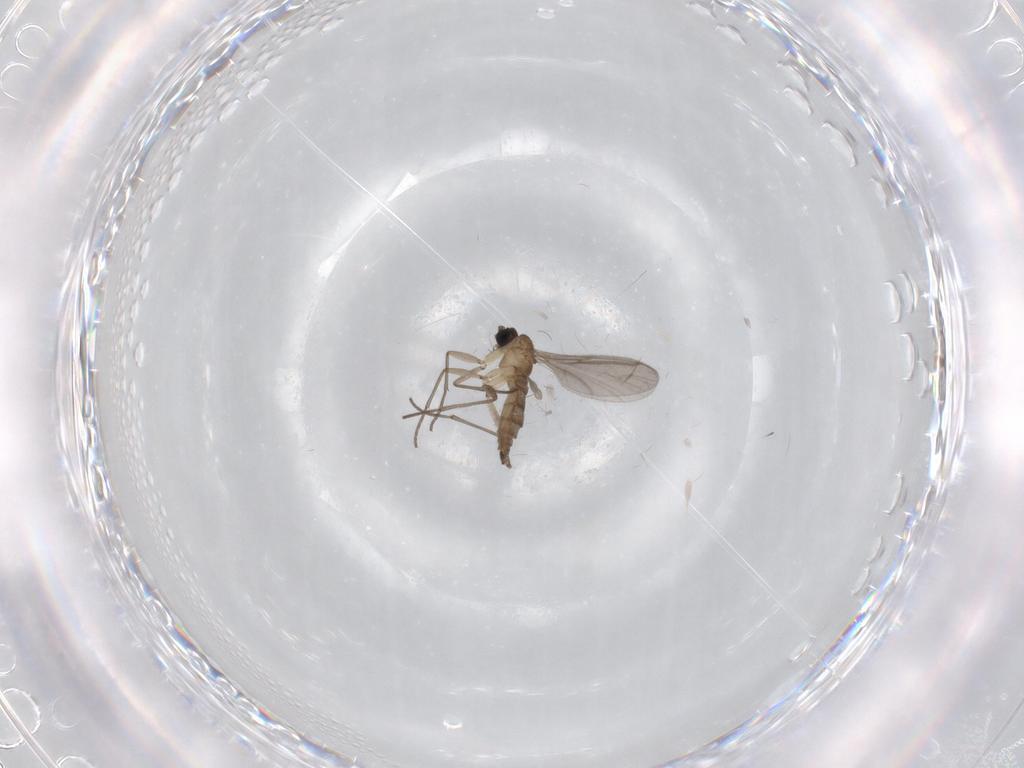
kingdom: Animalia
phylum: Arthropoda
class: Insecta
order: Diptera
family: Sciaridae
